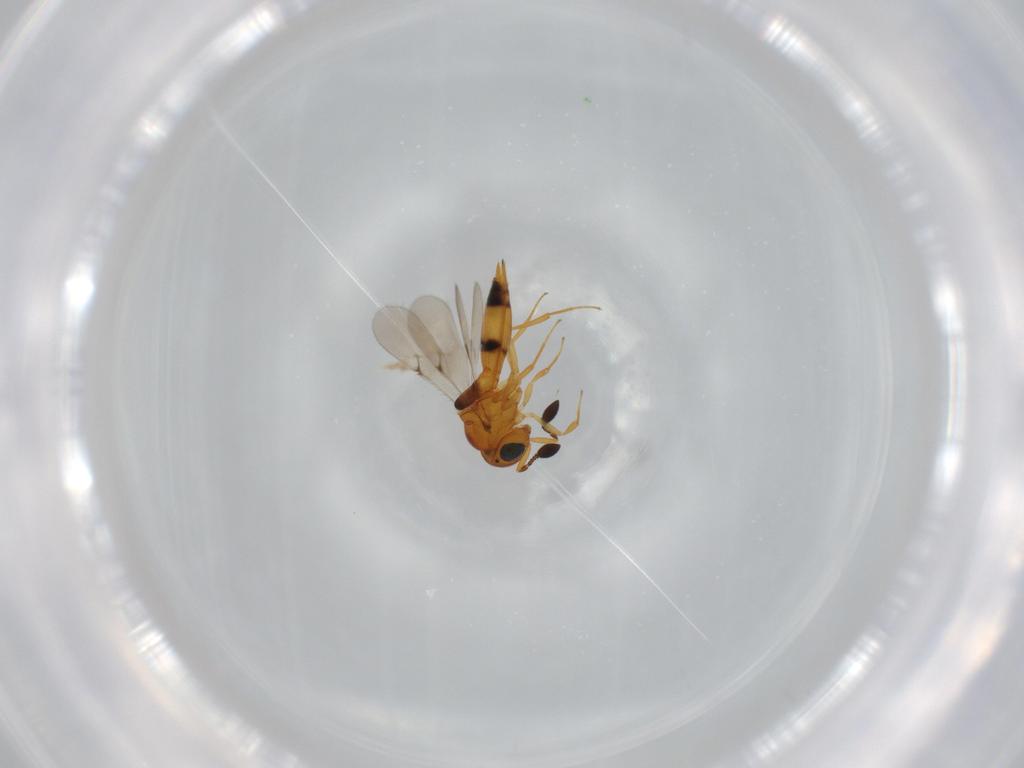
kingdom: Animalia
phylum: Arthropoda
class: Insecta
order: Hymenoptera
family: Scelionidae
